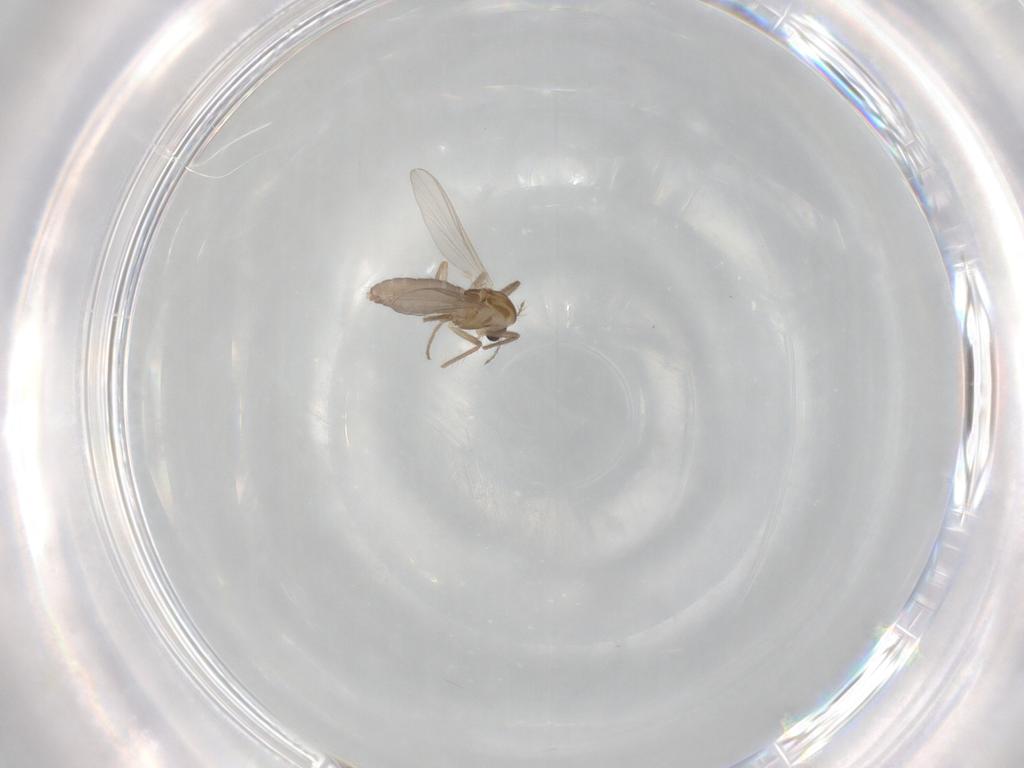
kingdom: Animalia
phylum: Arthropoda
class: Insecta
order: Diptera
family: Chironomidae
